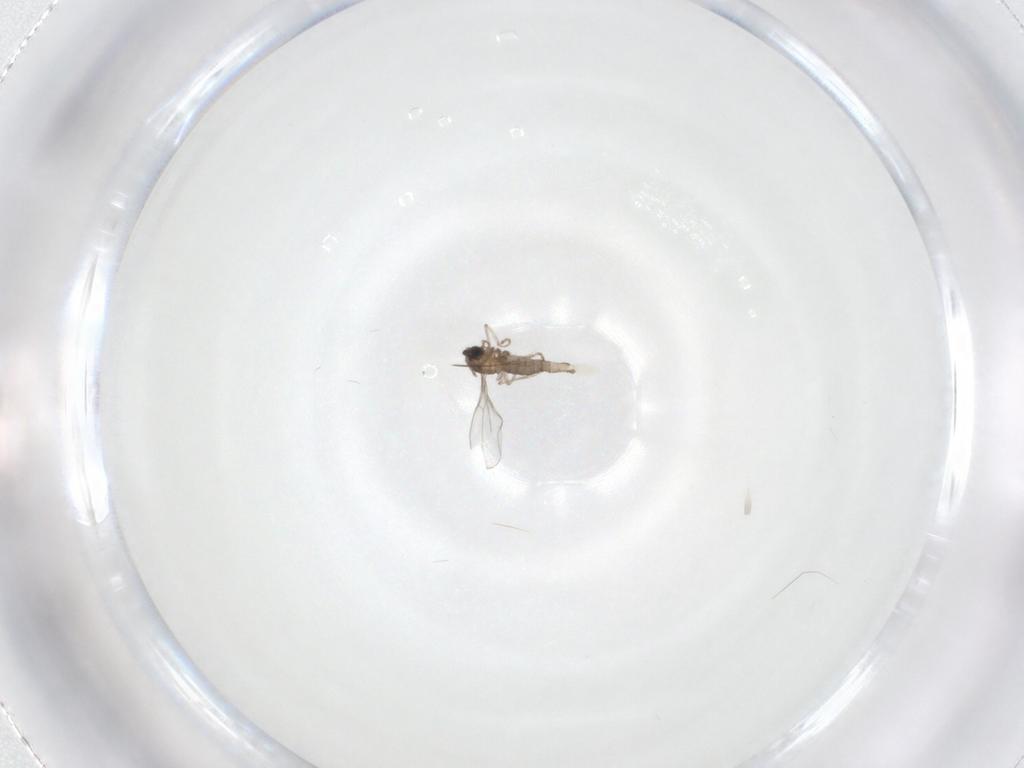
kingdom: Animalia
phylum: Arthropoda
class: Insecta
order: Diptera
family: Cecidomyiidae
